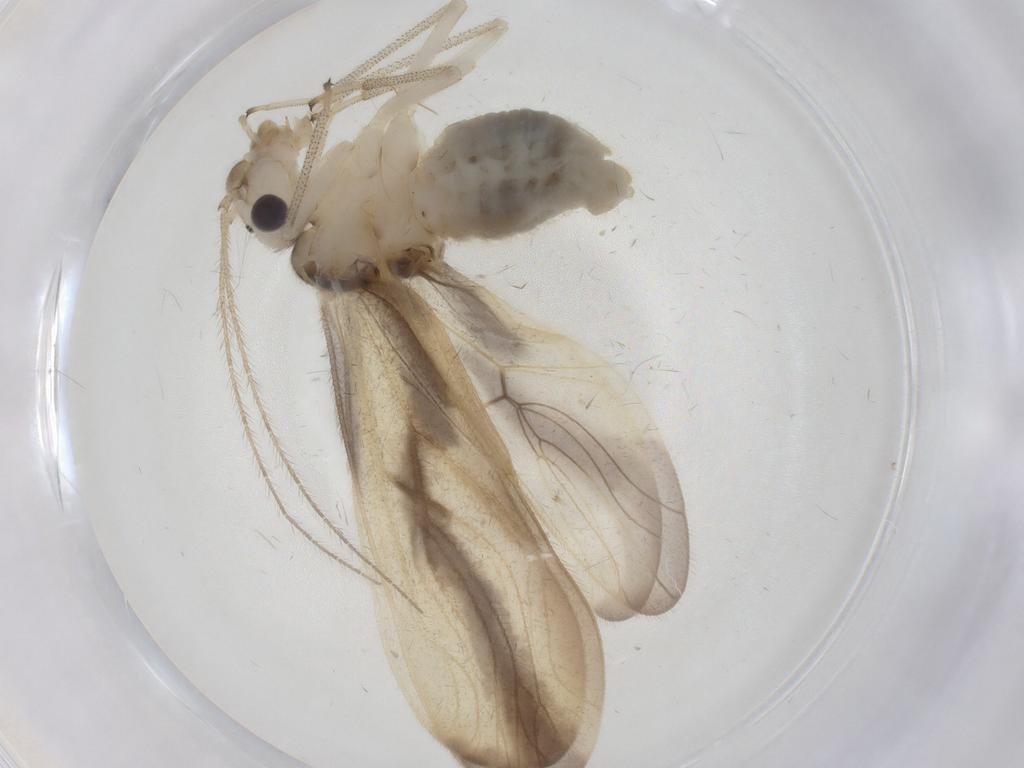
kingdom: Animalia
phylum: Arthropoda
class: Insecta
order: Psocodea
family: Amphipsocidae
